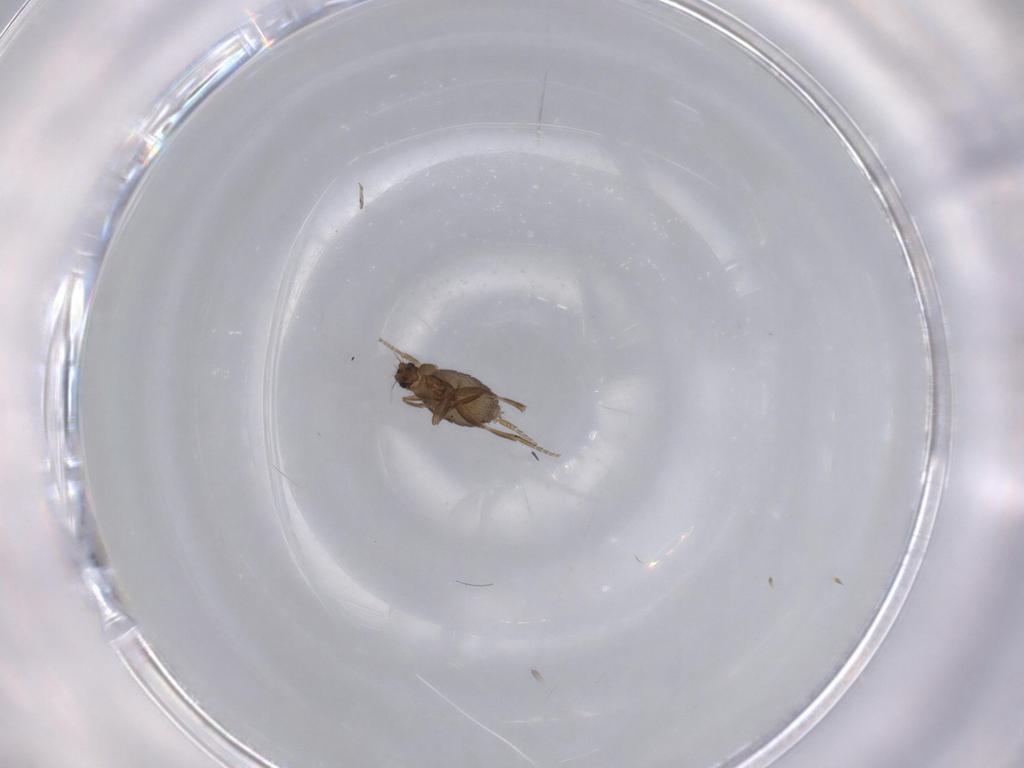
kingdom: Animalia
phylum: Arthropoda
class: Insecta
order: Diptera
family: Phoridae
